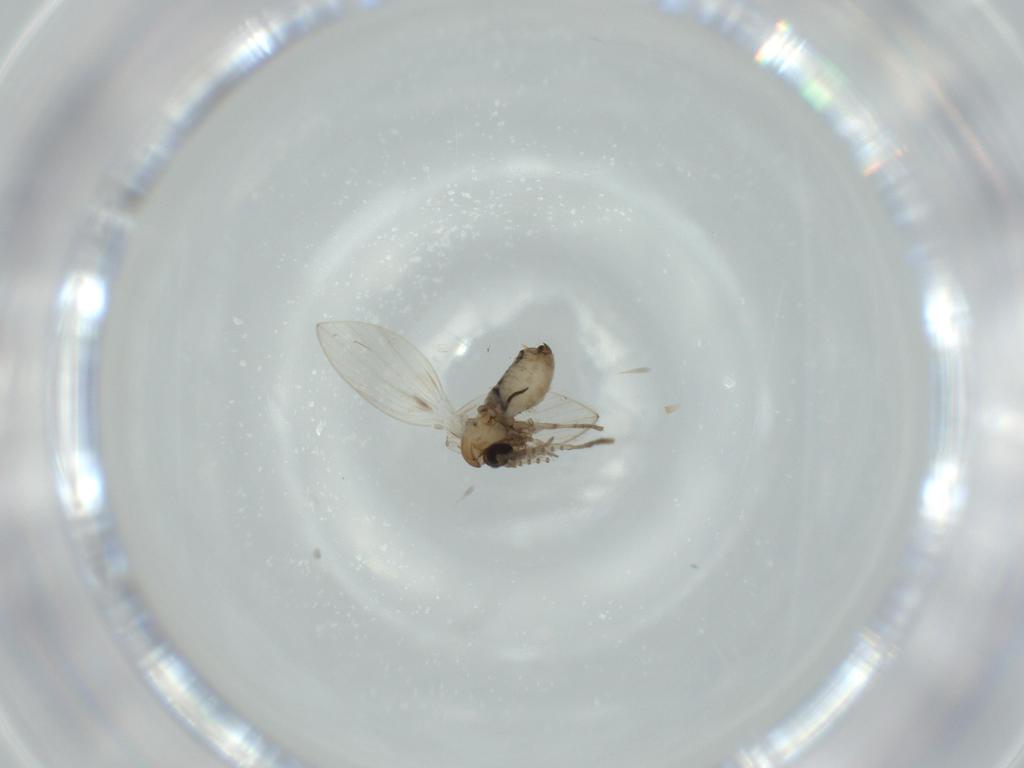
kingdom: Animalia
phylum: Arthropoda
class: Insecta
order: Diptera
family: Psychodidae
